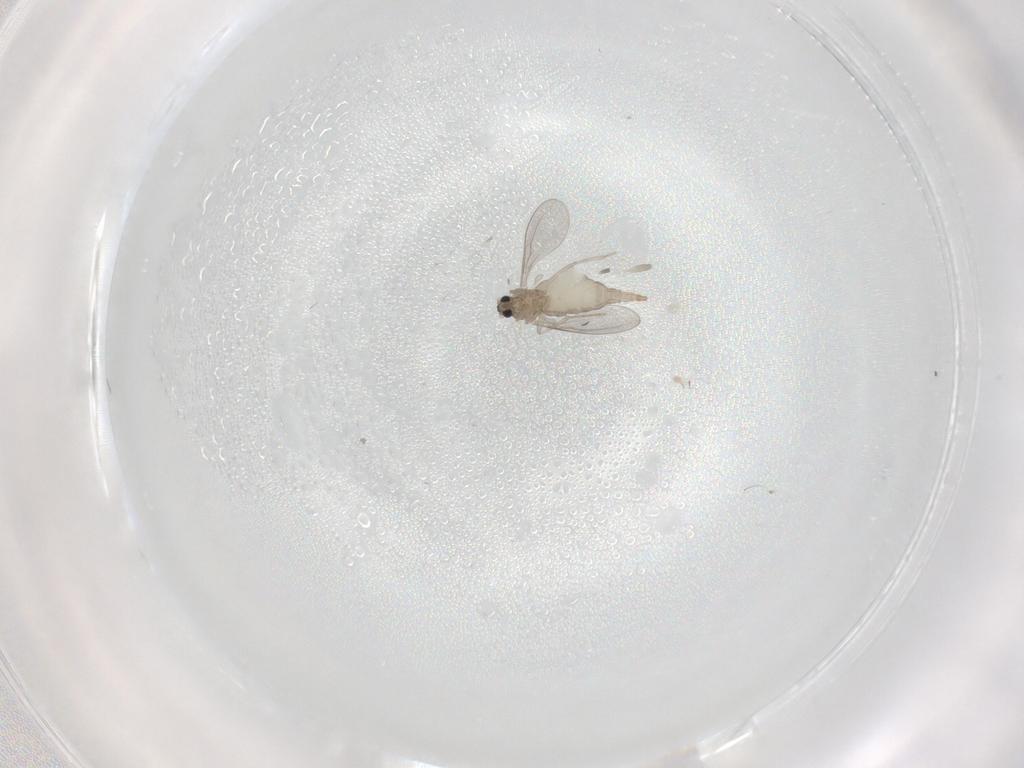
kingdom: Animalia
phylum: Arthropoda
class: Insecta
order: Diptera
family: Cecidomyiidae
